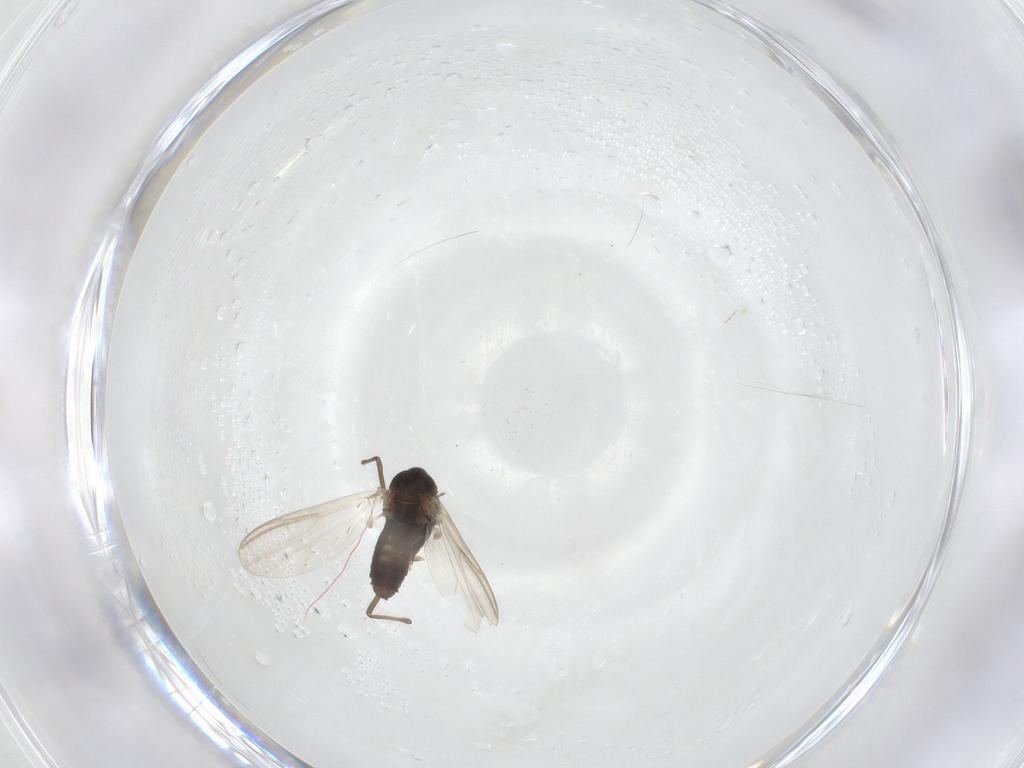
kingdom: Animalia
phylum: Arthropoda
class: Insecta
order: Diptera
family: Chironomidae
